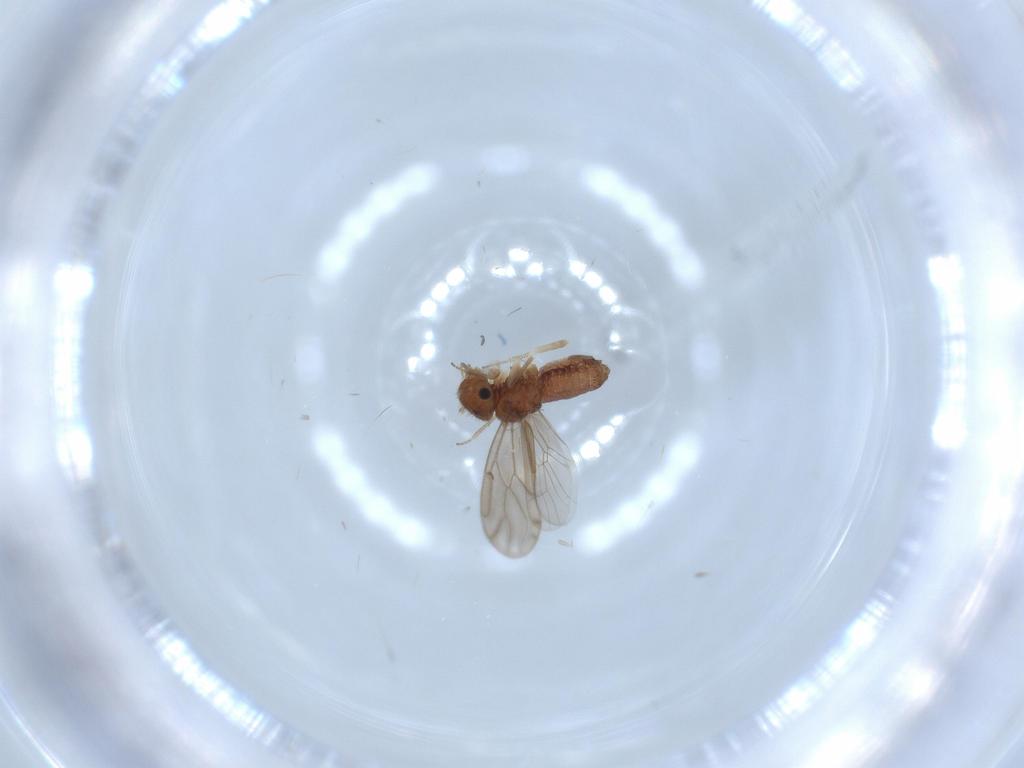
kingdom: Animalia
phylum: Arthropoda
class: Insecta
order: Psocodea
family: Ectopsocidae
